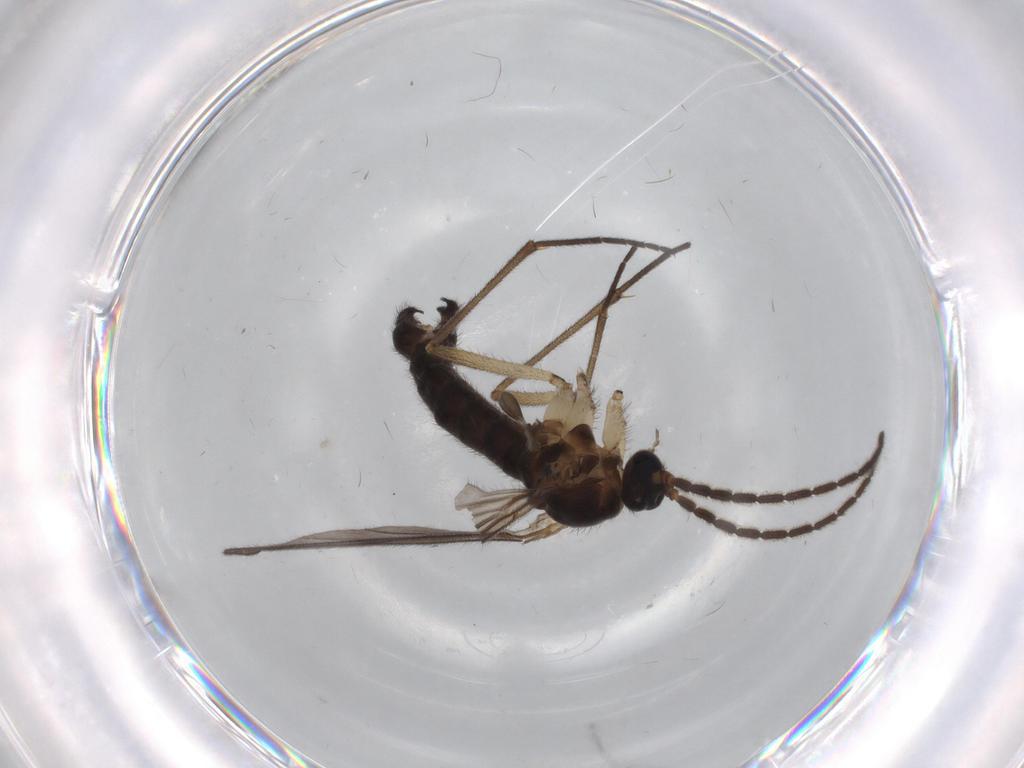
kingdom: Animalia
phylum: Arthropoda
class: Insecta
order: Diptera
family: Sciaridae
